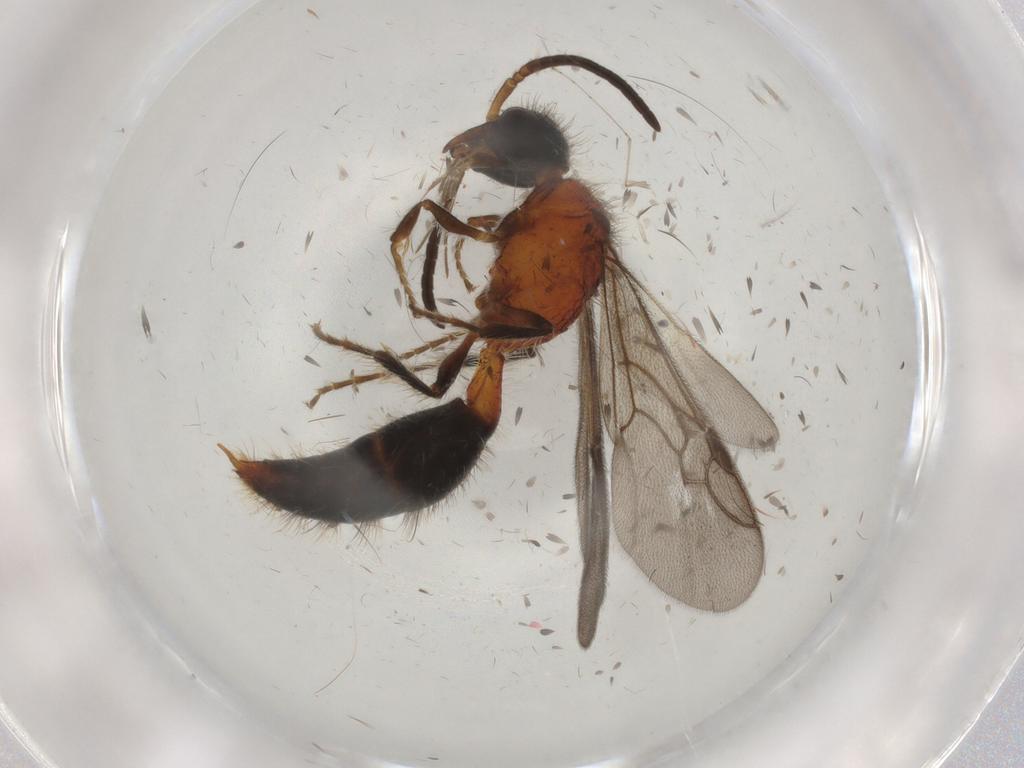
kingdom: Animalia
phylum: Arthropoda
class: Insecta
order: Hymenoptera
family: Mutillidae
